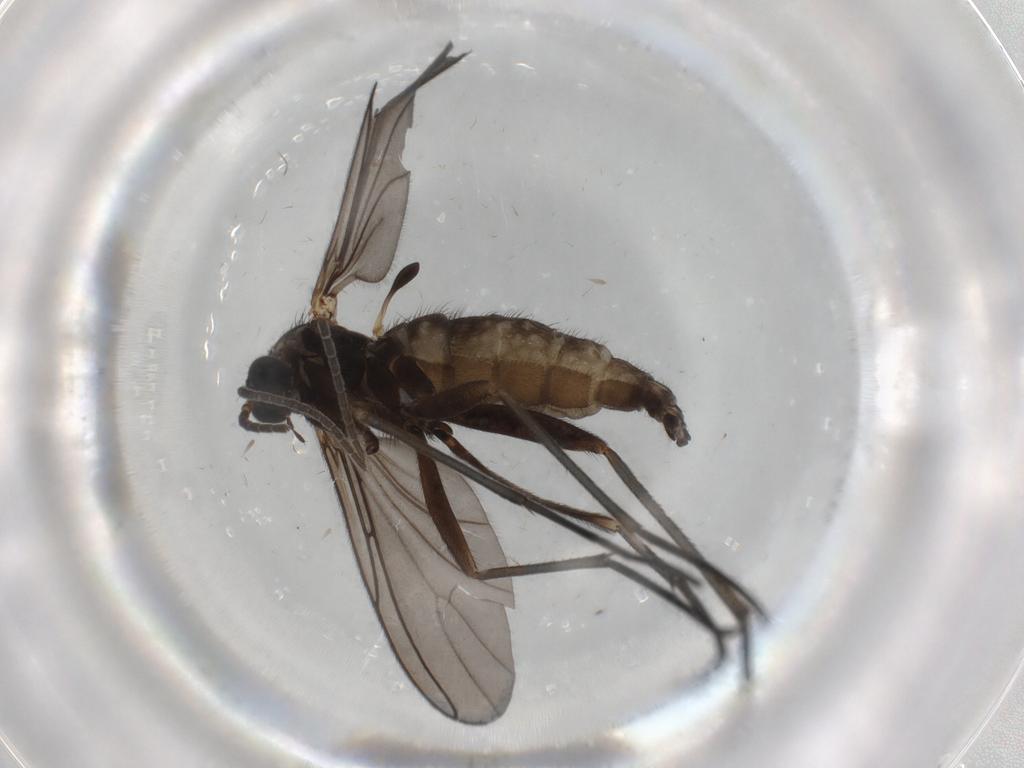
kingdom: Animalia
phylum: Arthropoda
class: Insecta
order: Diptera
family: Sciaridae
